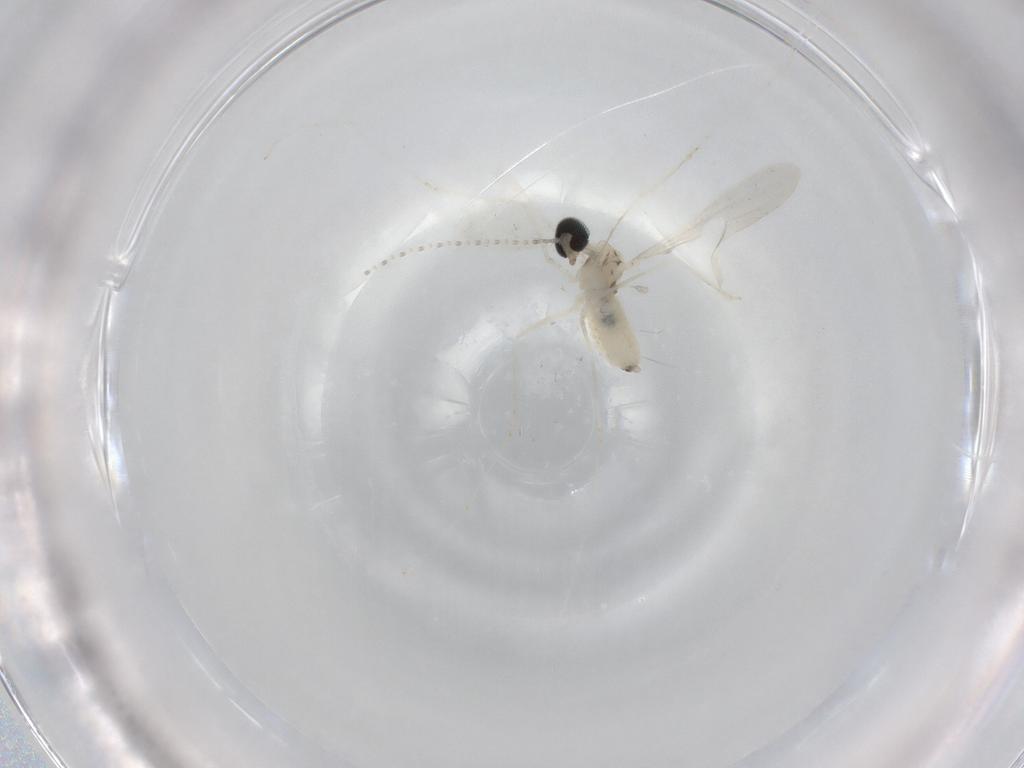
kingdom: Animalia
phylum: Arthropoda
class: Insecta
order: Diptera
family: Cecidomyiidae
